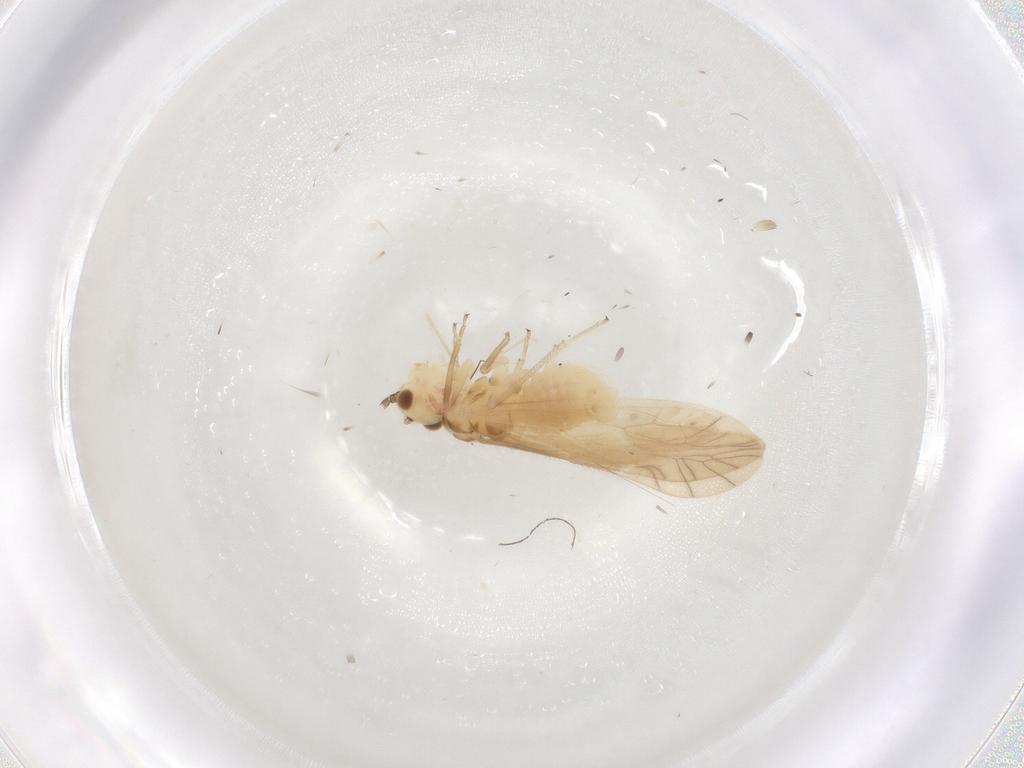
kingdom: Animalia
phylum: Arthropoda
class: Insecta
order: Psocodea
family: Caeciliusidae
